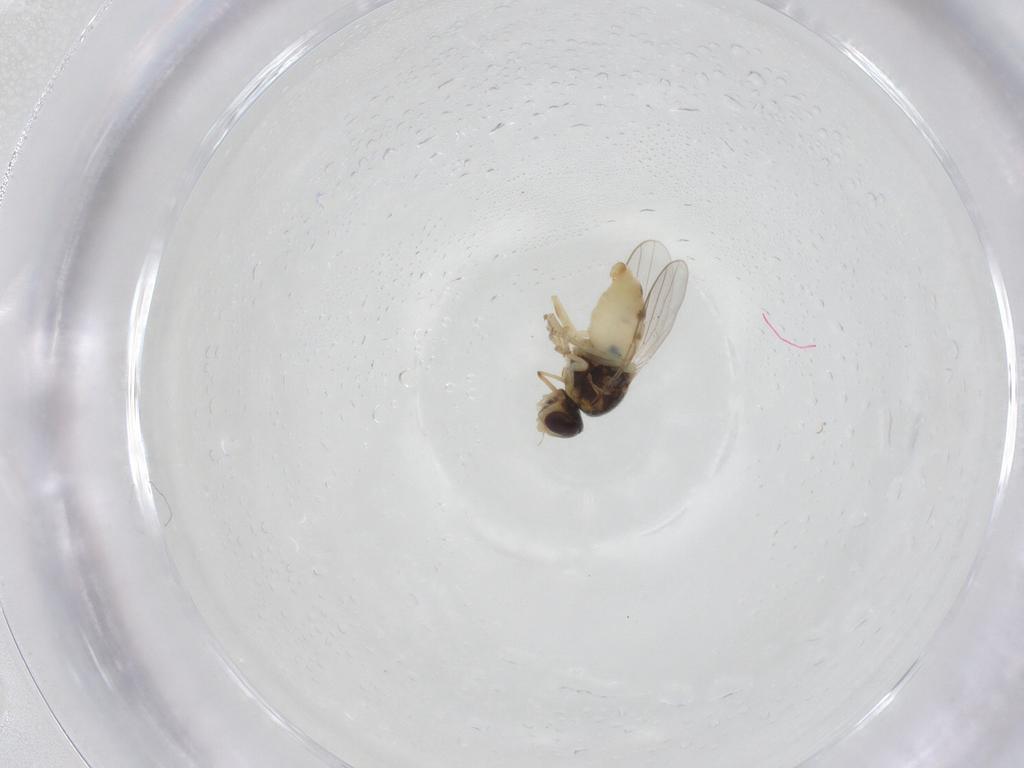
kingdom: Animalia
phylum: Arthropoda
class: Insecta
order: Diptera
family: Chloropidae
